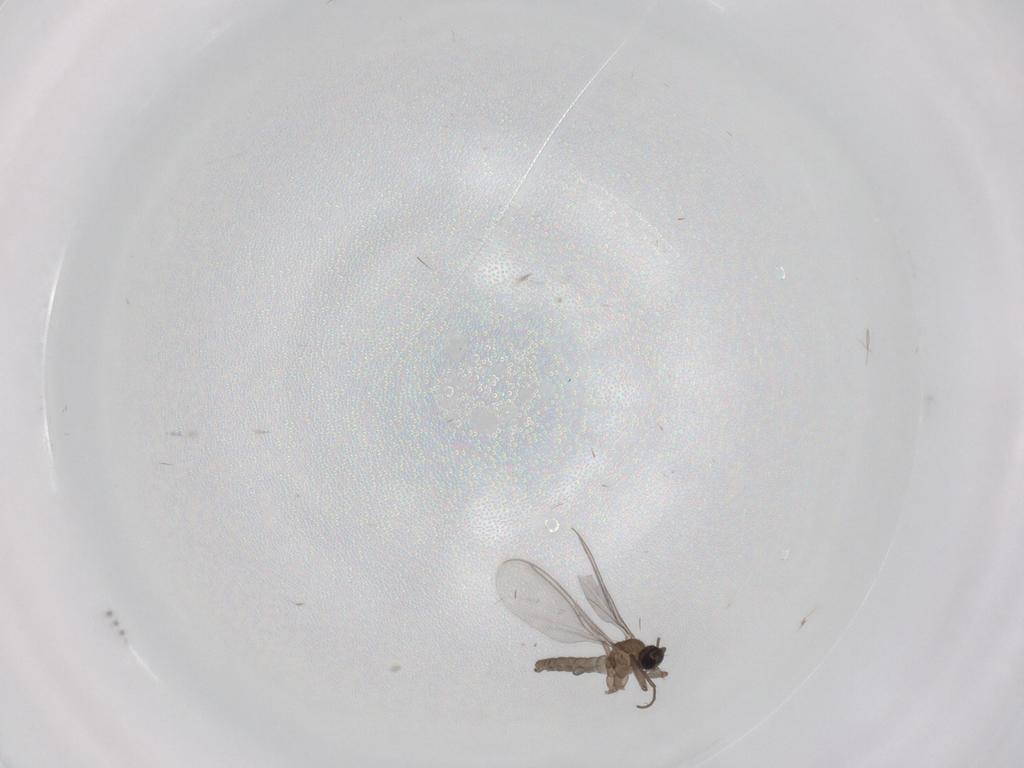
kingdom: Animalia
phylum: Arthropoda
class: Insecta
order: Diptera
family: Sciaridae
